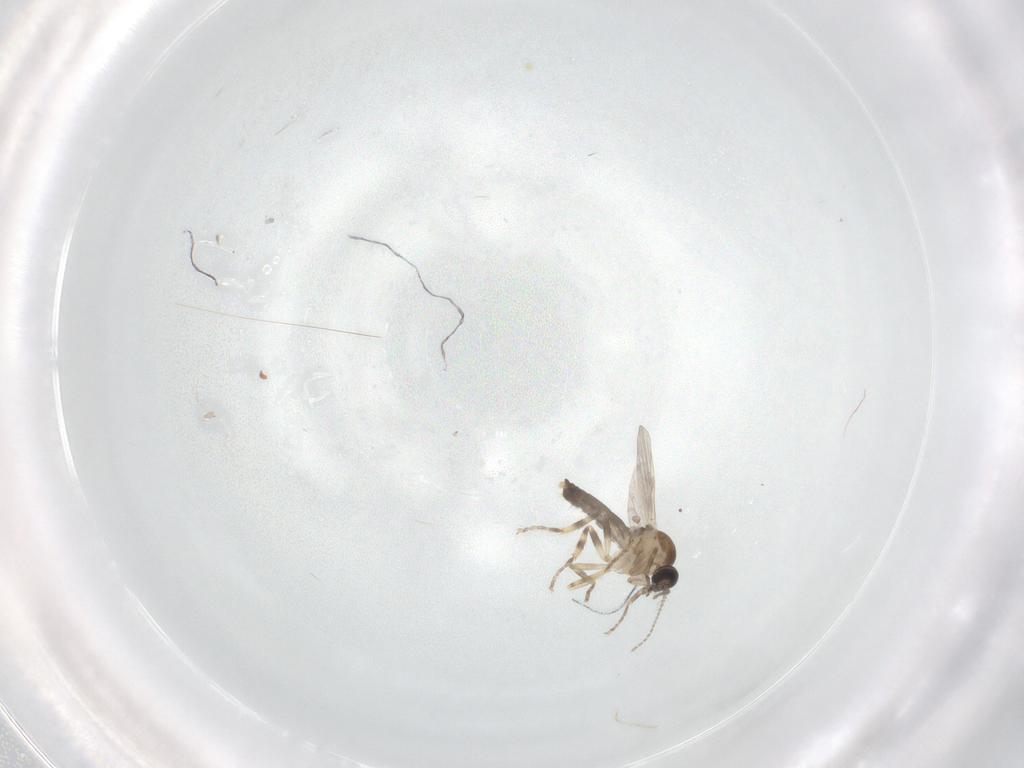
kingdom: Animalia
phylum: Arthropoda
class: Insecta
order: Diptera
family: Ceratopogonidae
